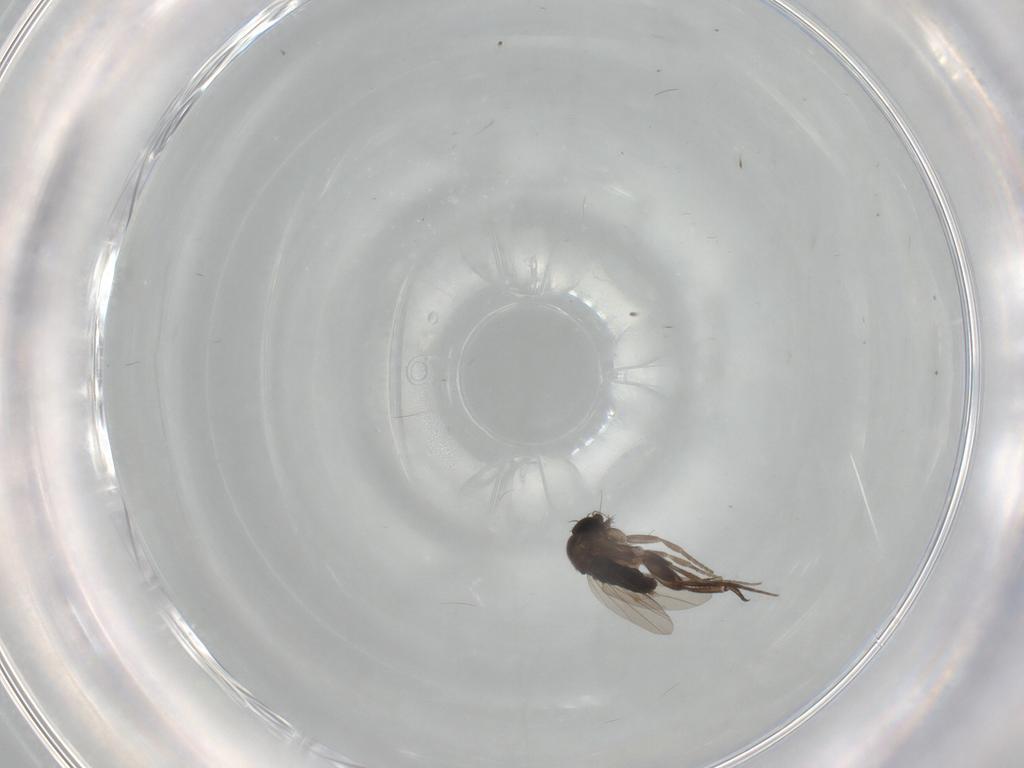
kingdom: Animalia
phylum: Arthropoda
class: Insecta
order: Diptera
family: Phoridae
